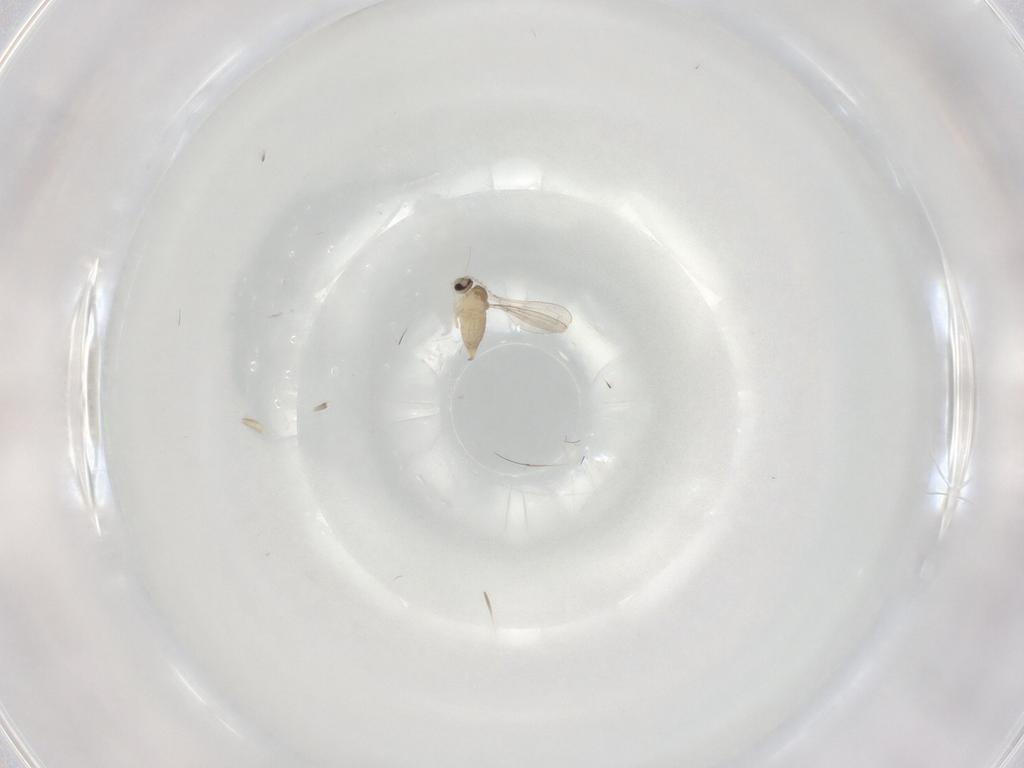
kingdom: Animalia
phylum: Arthropoda
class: Insecta
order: Diptera
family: Cecidomyiidae
